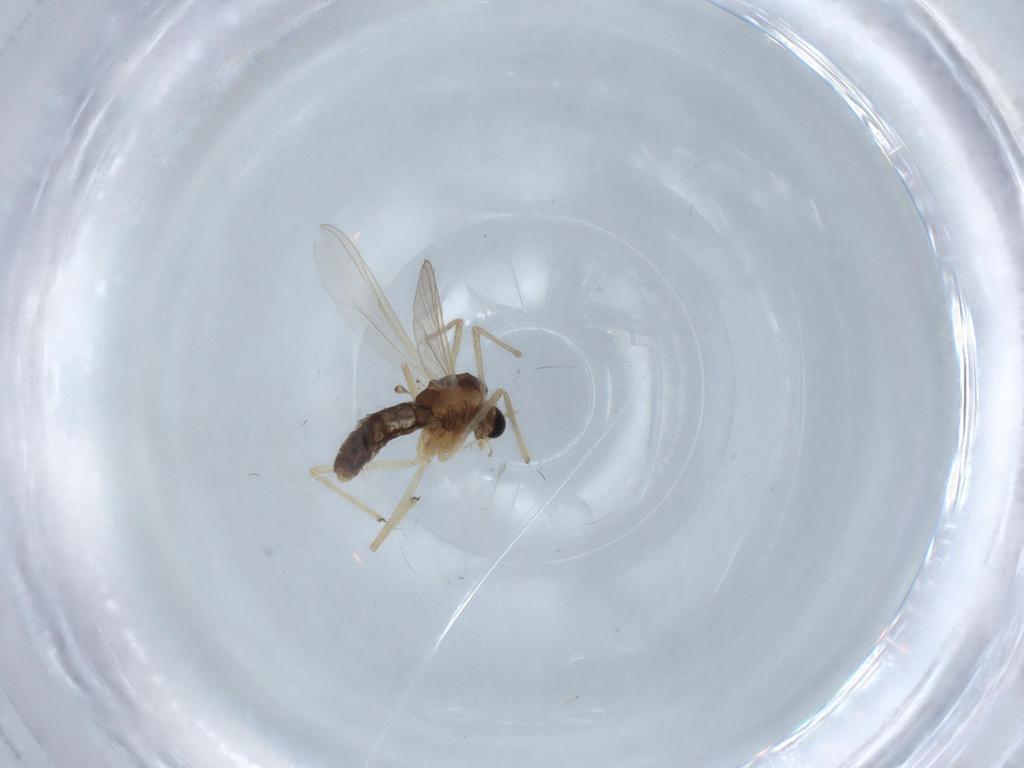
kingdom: Animalia
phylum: Arthropoda
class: Insecta
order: Diptera
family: Chironomidae
